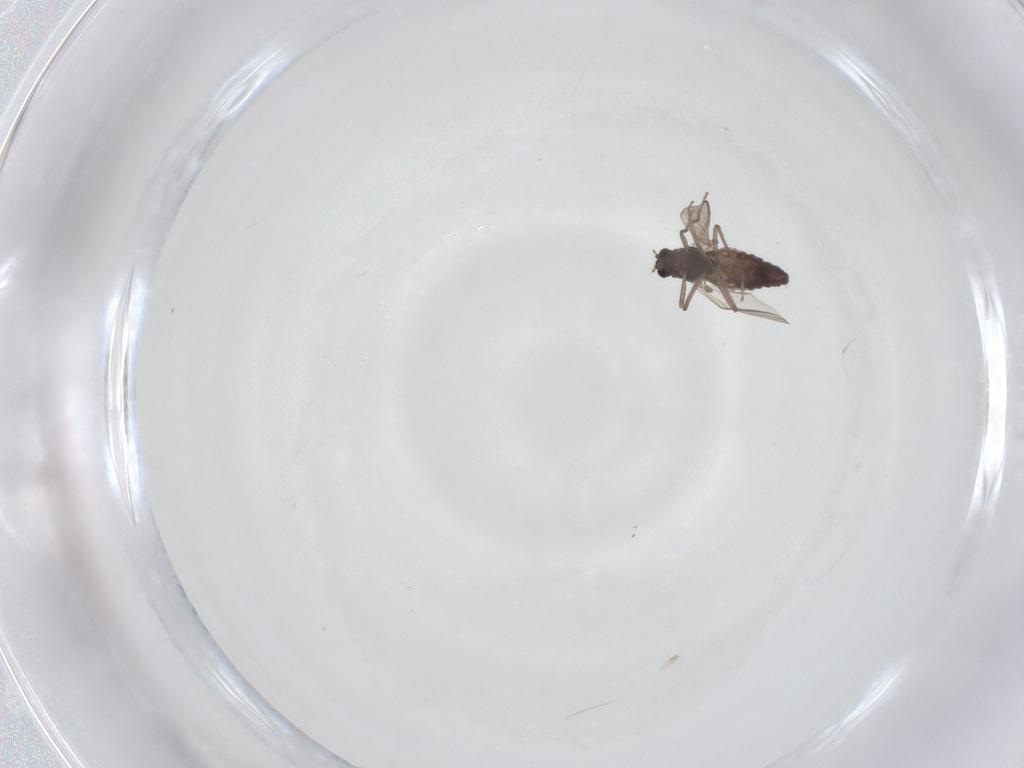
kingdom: Animalia
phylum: Arthropoda
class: Insecta
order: Diptera
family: Chironomidae
